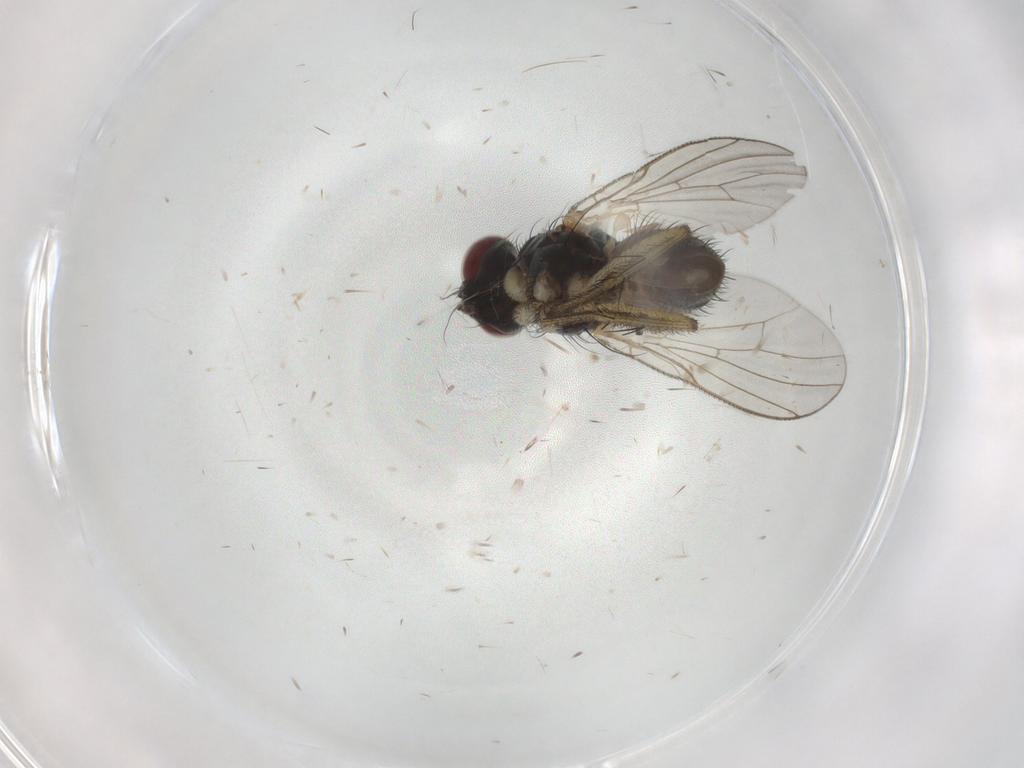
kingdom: Animalia
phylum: Arthropoda
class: Insecta
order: Diptera
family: Muscidae
